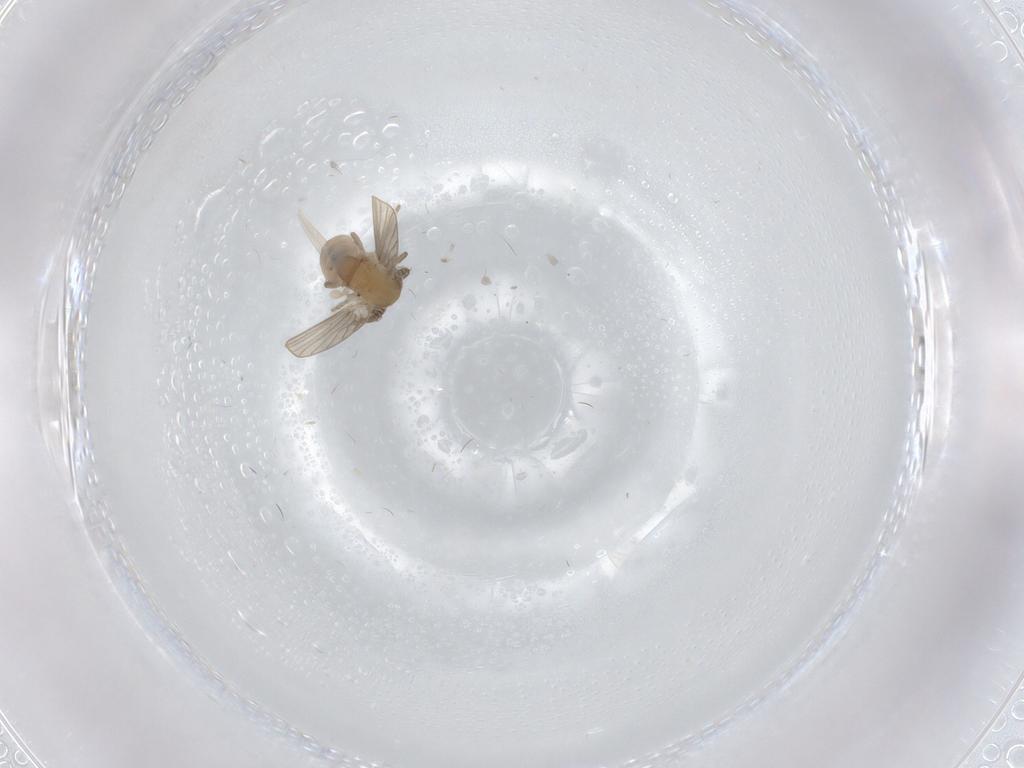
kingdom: Animalia
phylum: Arthropoda
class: Insecta
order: Diptera
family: Psychodidae
